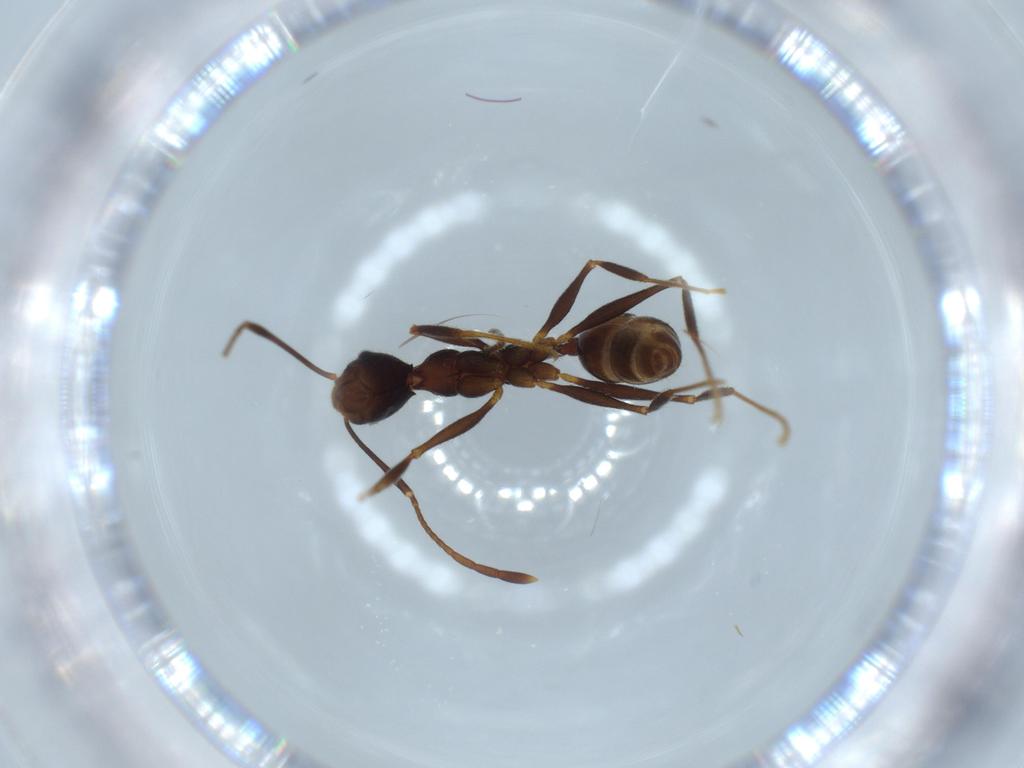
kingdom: Animalia
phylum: Arthropoda
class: Insecta
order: Hymenoptera
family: Formicidae
